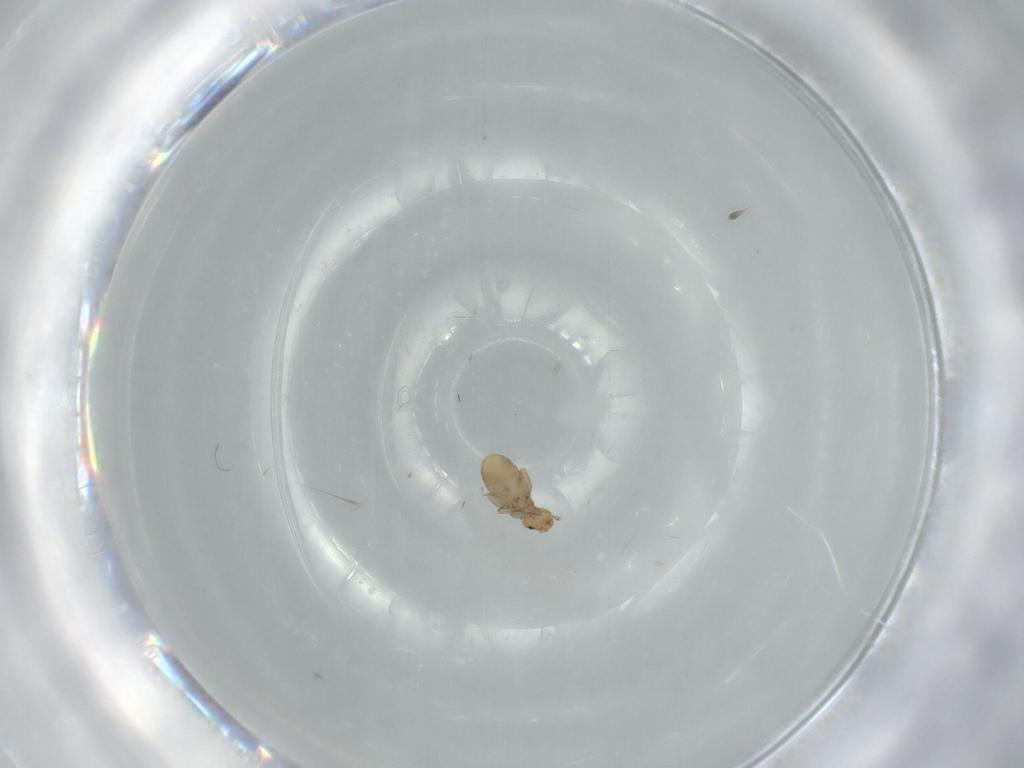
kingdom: Animalia
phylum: Arthropoda
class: Insecta
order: Psocodea
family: Liposcelididae
